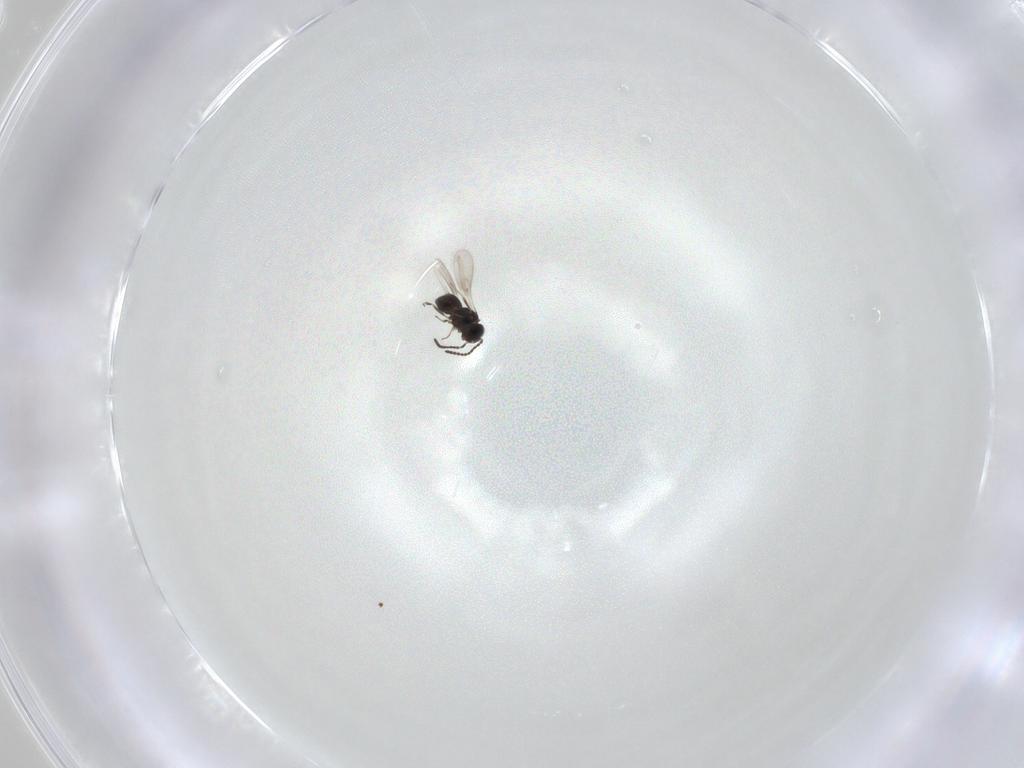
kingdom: Animalia
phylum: Arthropoda
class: Insecta
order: Hymenoptera
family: Scelionidae
